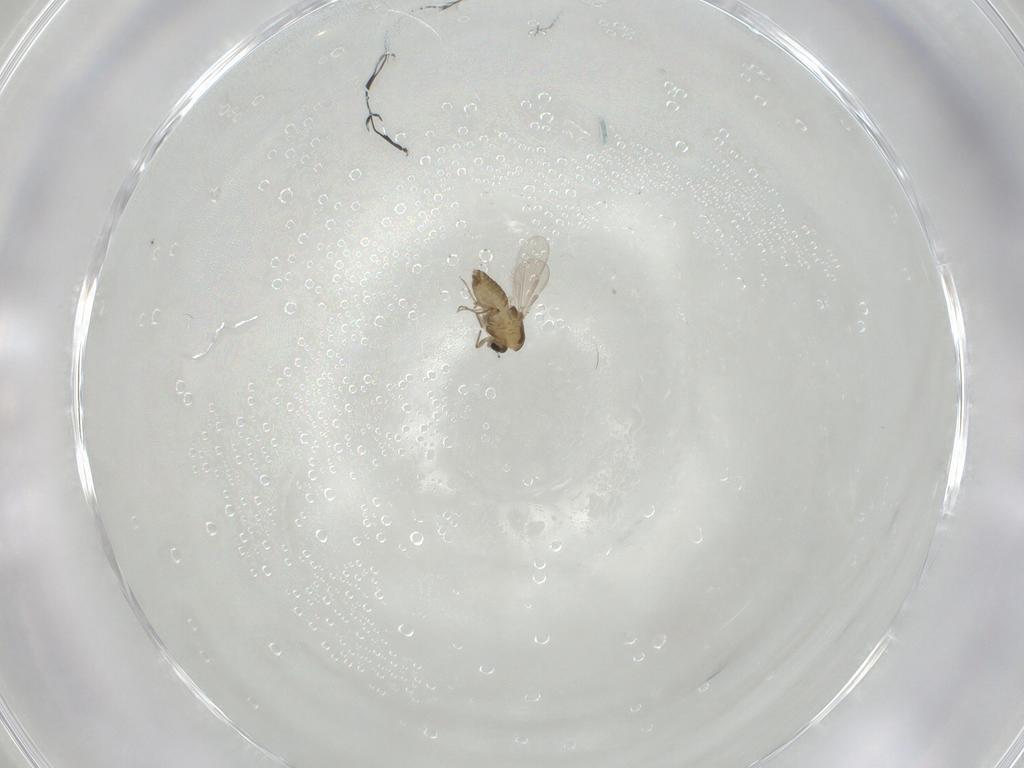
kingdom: Animalia
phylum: Arthropoda
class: Insecta
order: Diptera
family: Chironomidae
